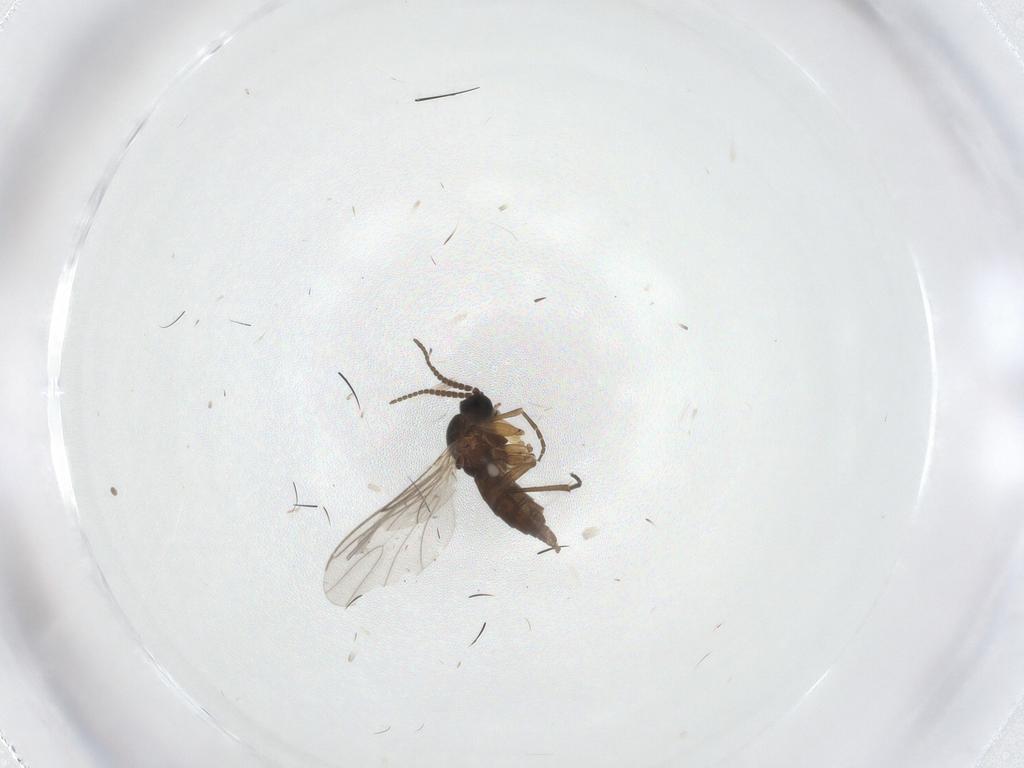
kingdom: Animalia
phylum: Arthropoda
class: Insecta
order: Diptera
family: Sciaridae
